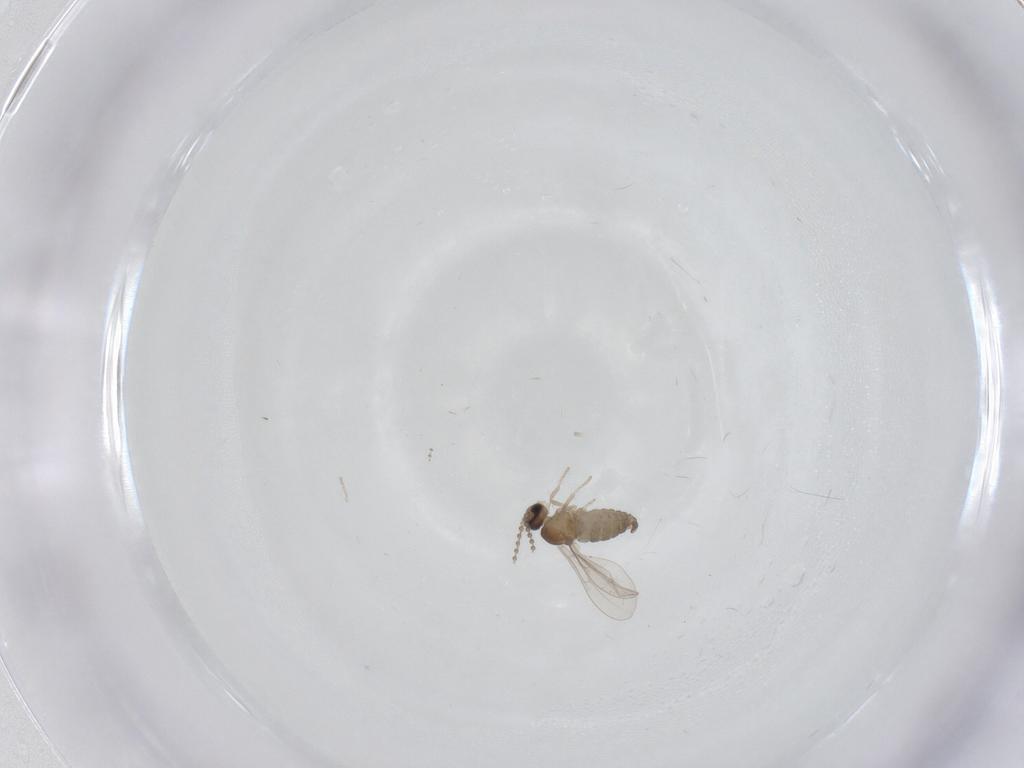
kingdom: Animalia
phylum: Arthropoda
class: Insecta
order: Diptera
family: Cecidomyiidae
